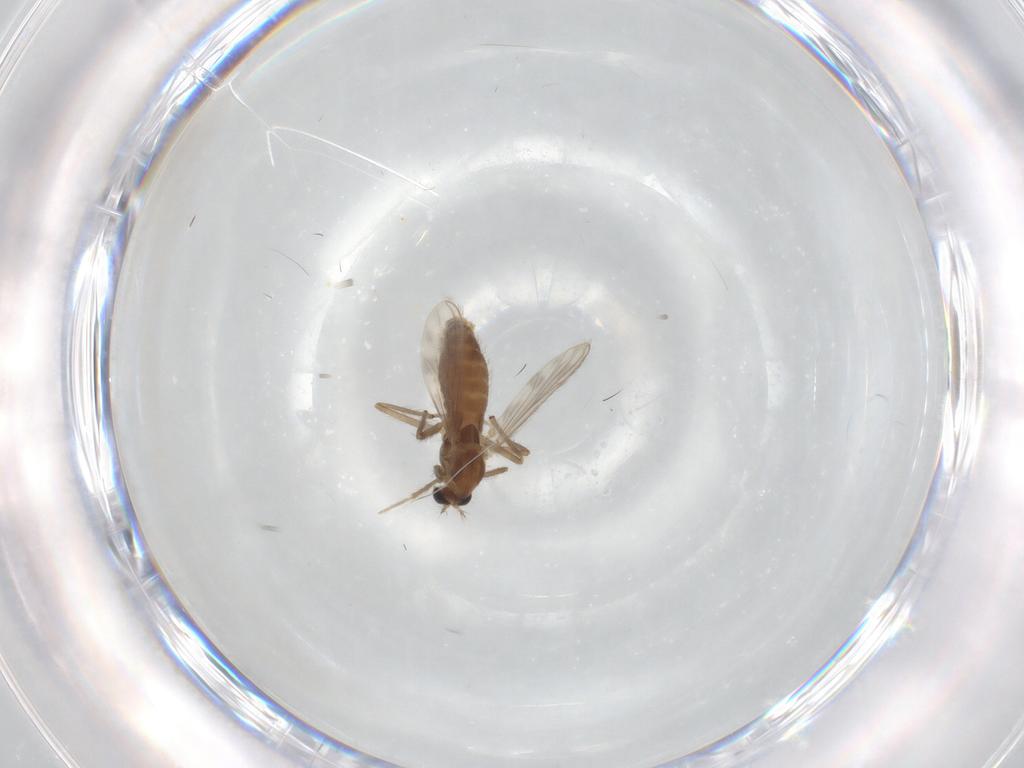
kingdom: Animalia
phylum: Arthropoda
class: Insecta
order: Diptera
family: Chironomidae
